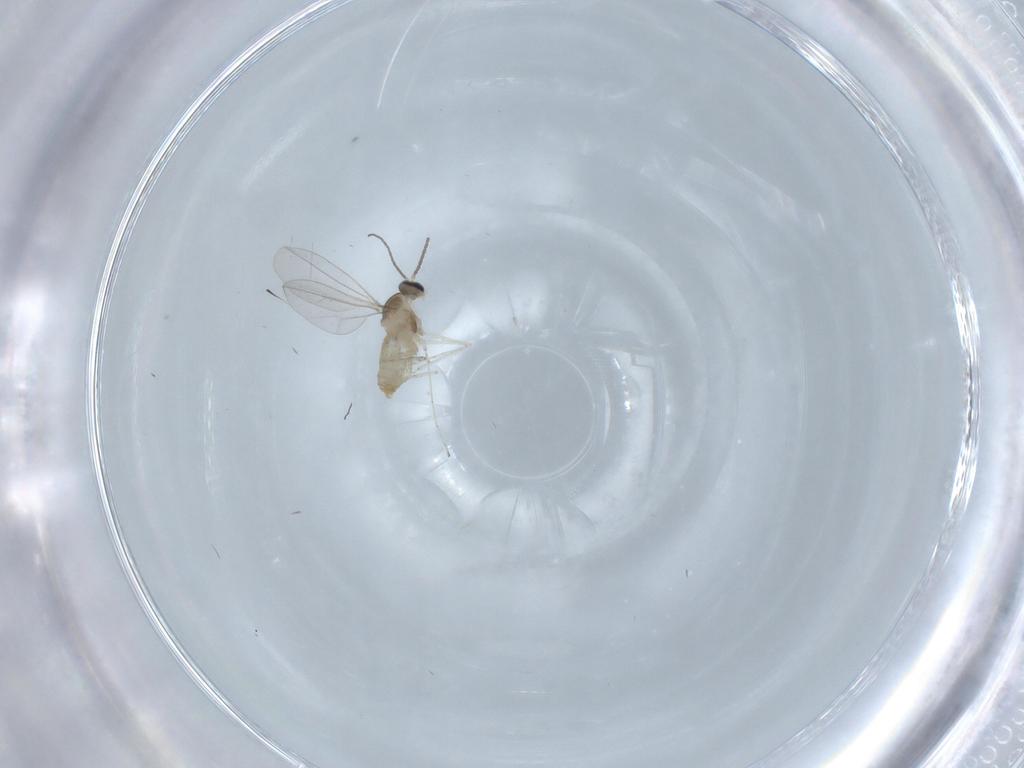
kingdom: Animalia
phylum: Arthropoda
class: Insecta
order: Diptera
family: Cecidomyiidae
